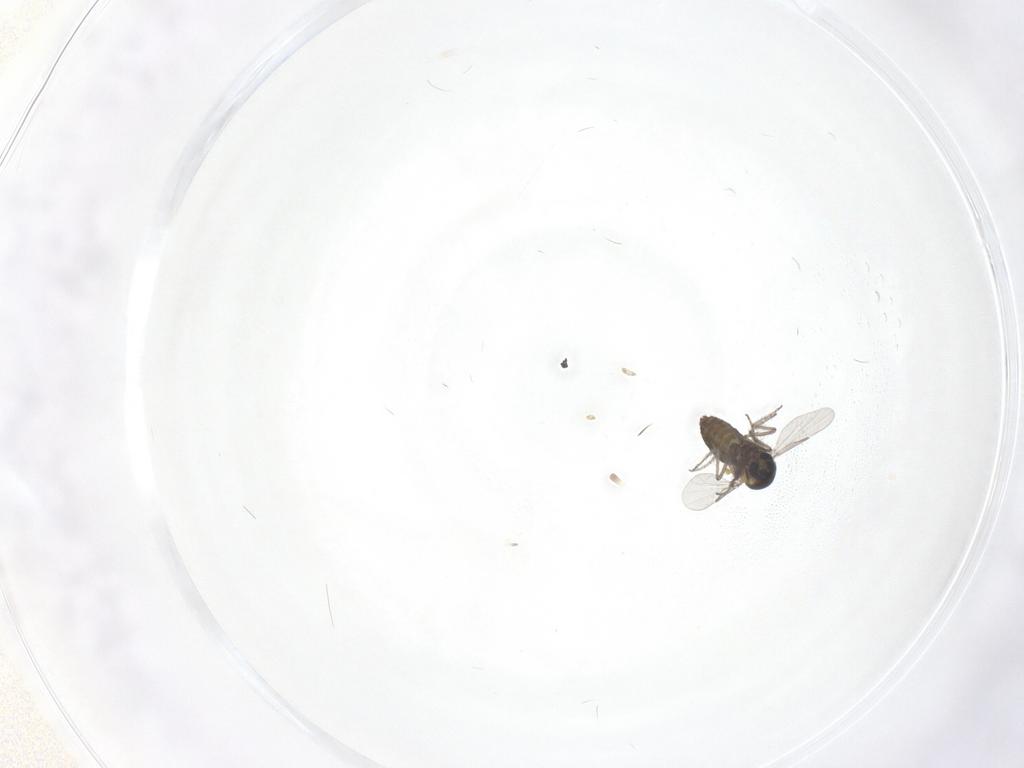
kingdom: Animalia
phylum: Arthropoda
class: Insecta
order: Diptera
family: Ceratopogonidae
